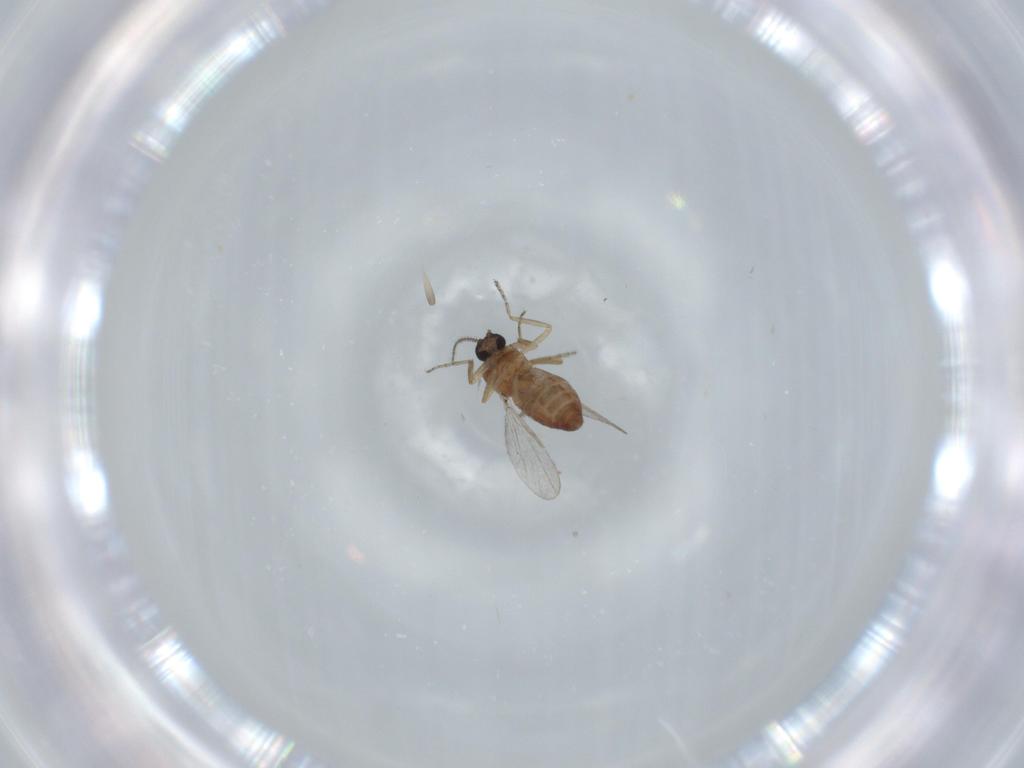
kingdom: Animalia
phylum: Arthropoda
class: Insecta
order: Diptera
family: Ceratopogonidae
